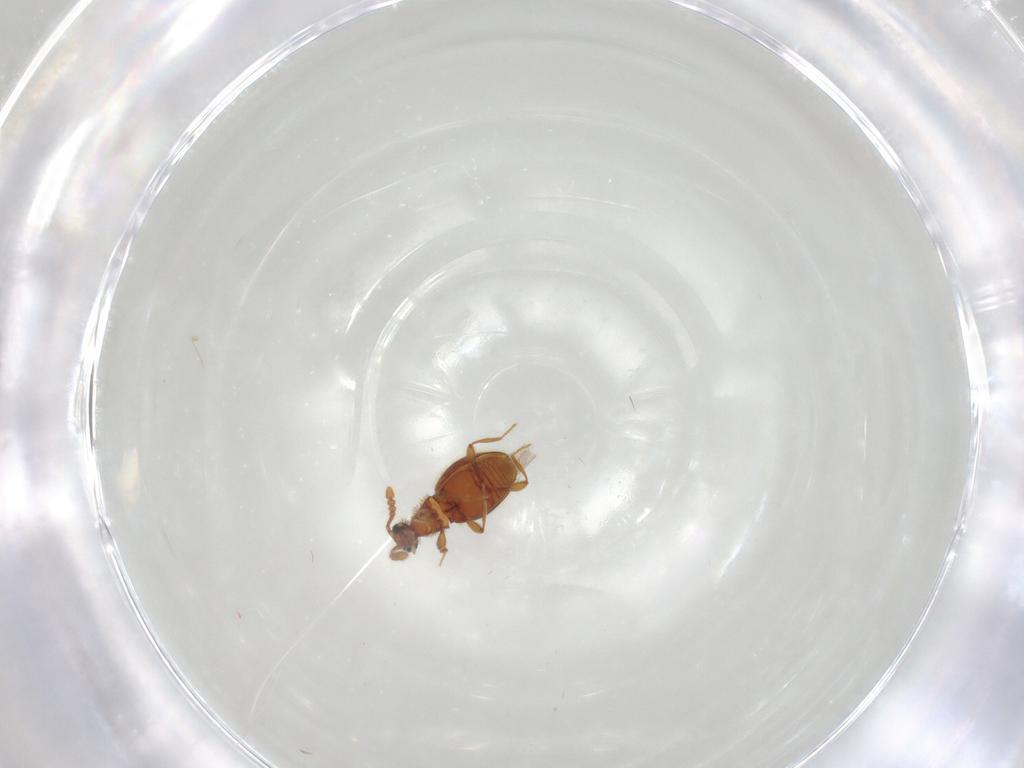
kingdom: Animalia
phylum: Arthropoda
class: Insecta
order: Coleoptera
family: Staphylinidae
